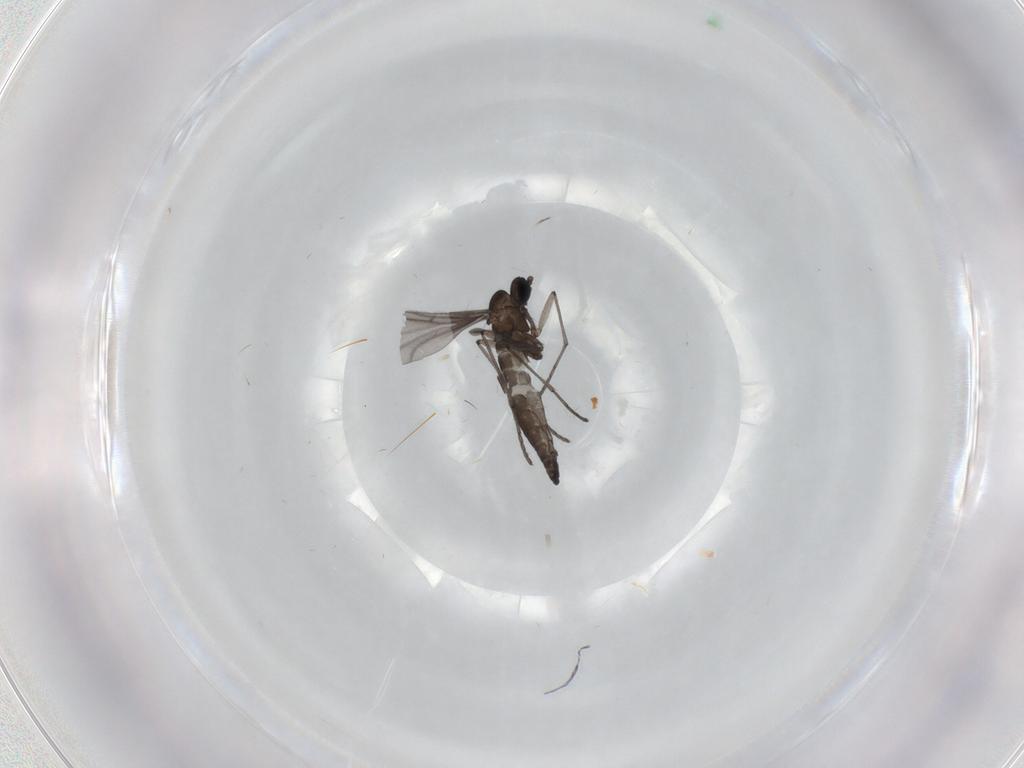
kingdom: Animalia
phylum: Arthropoda
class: Insecta
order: Diptera
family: Sciaridae
